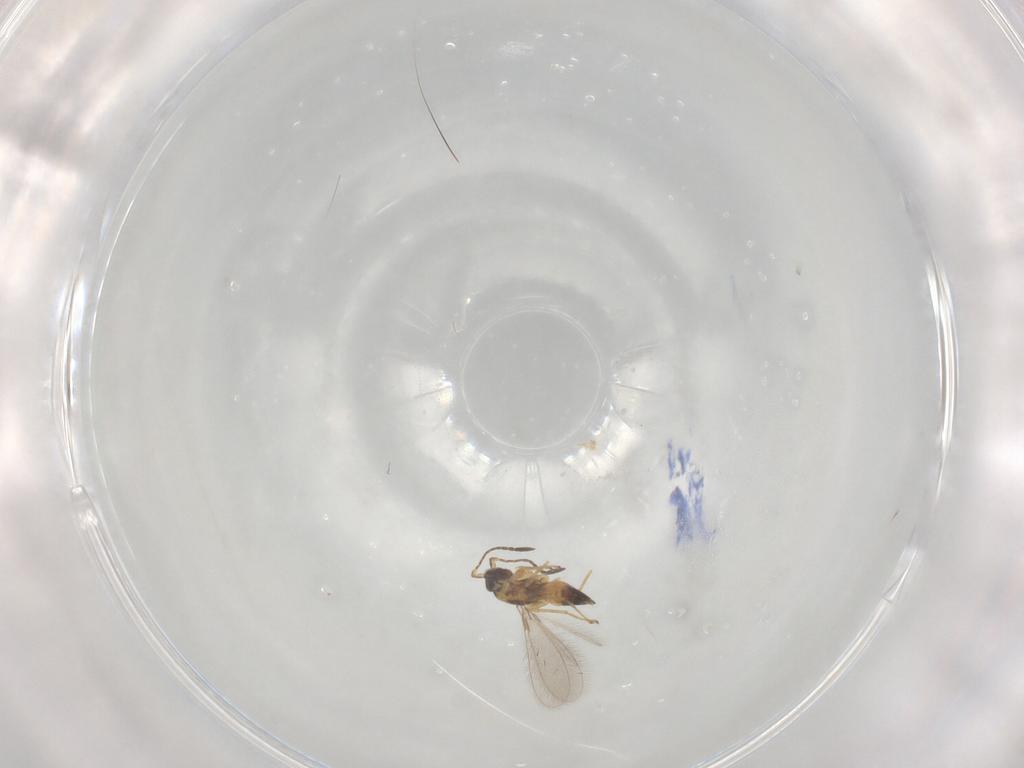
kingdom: Animalia
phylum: Arthropoda
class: Insecta
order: Hymenoptera
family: Mymaridae
